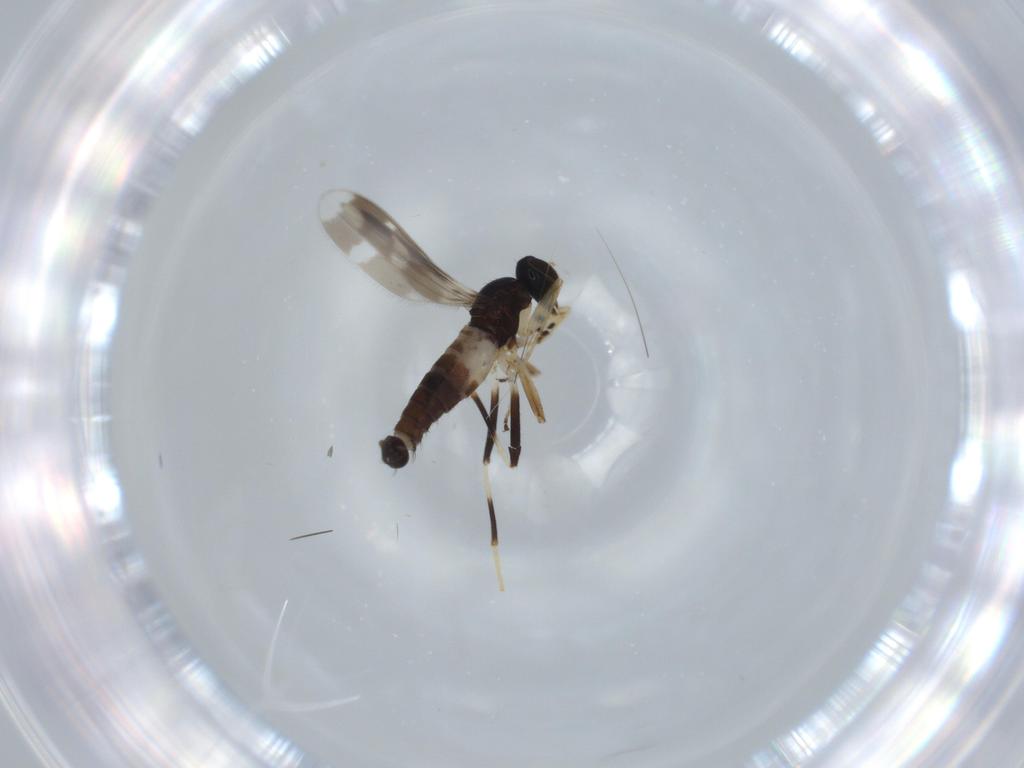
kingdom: Animalia
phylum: Arthropoda
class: Insecta
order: Diptera
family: Hybotidae
